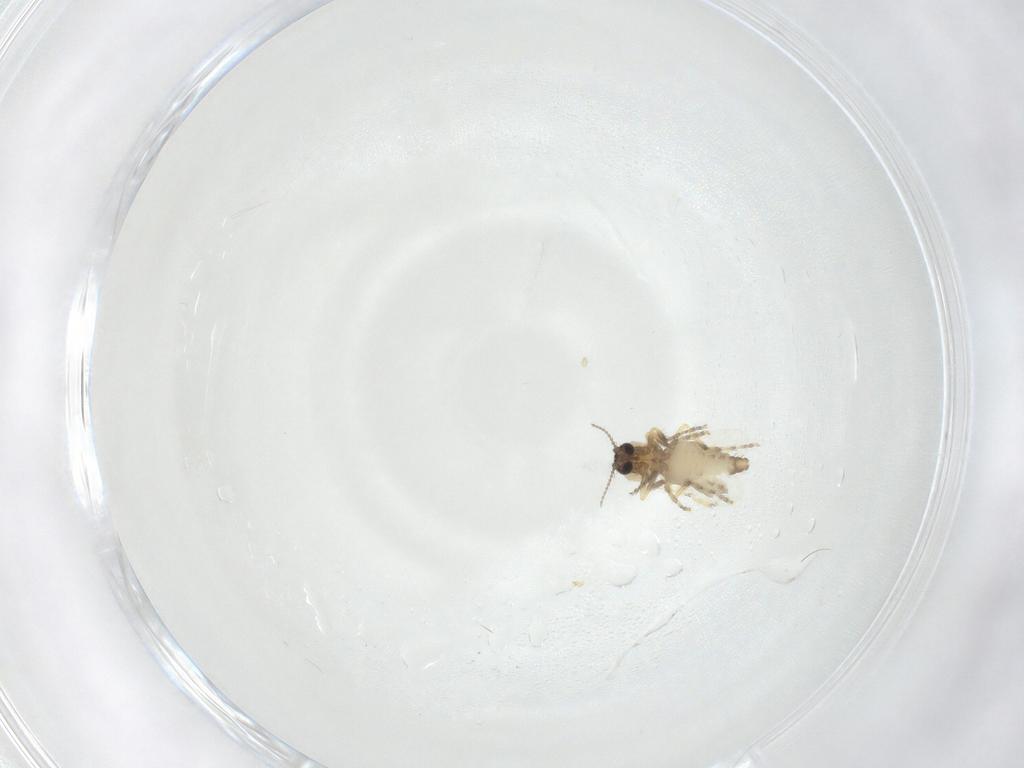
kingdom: Animalia
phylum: Arthropoda
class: Insecta
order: Diptera
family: Ceratopogonidae
